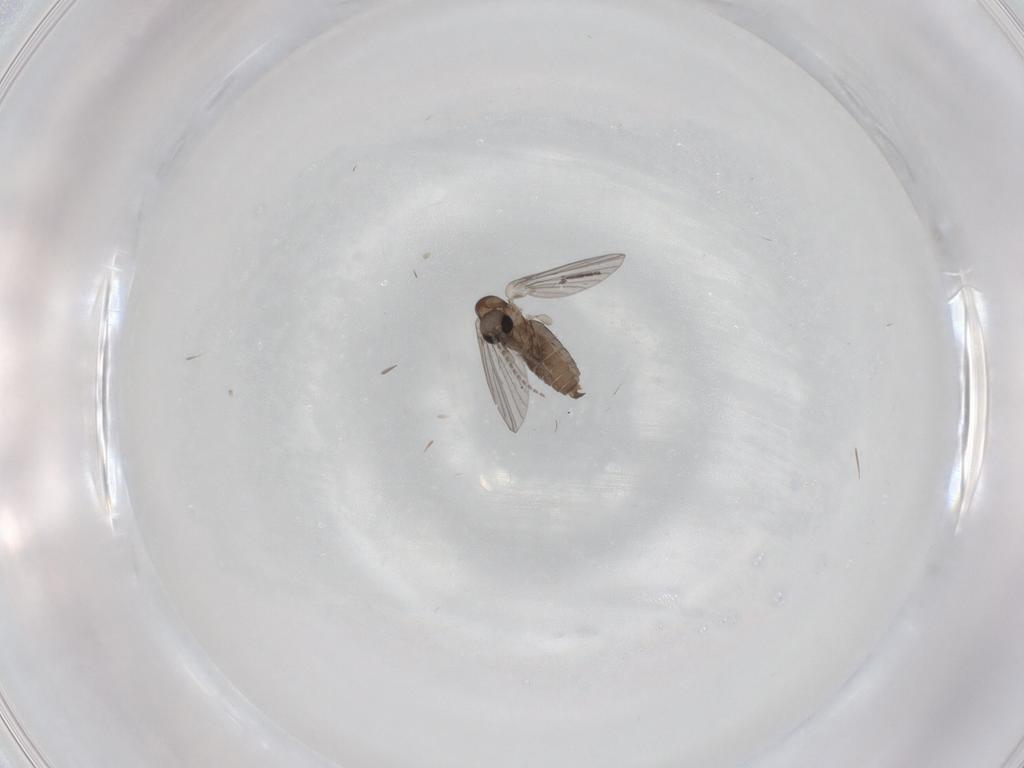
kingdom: Animalia
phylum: Arthropoda
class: Insecta
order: Diptera
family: Sciaridae
